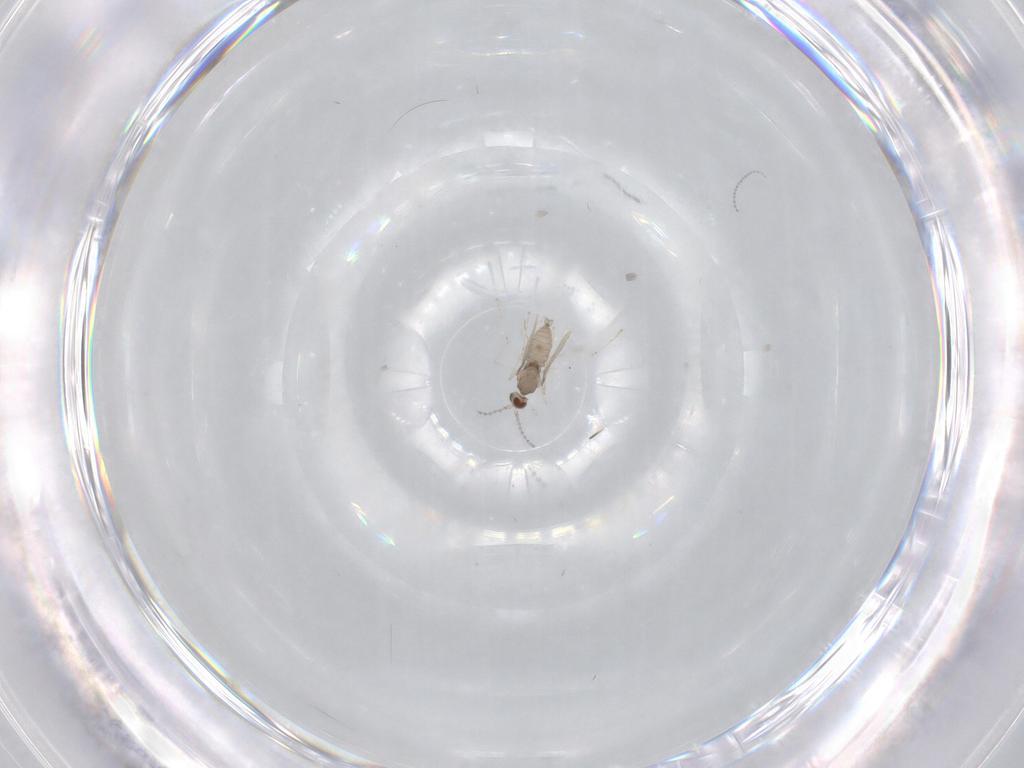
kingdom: Animalia
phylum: Arthropoda
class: Insecta
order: Diptera
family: Cecidomyiidae
